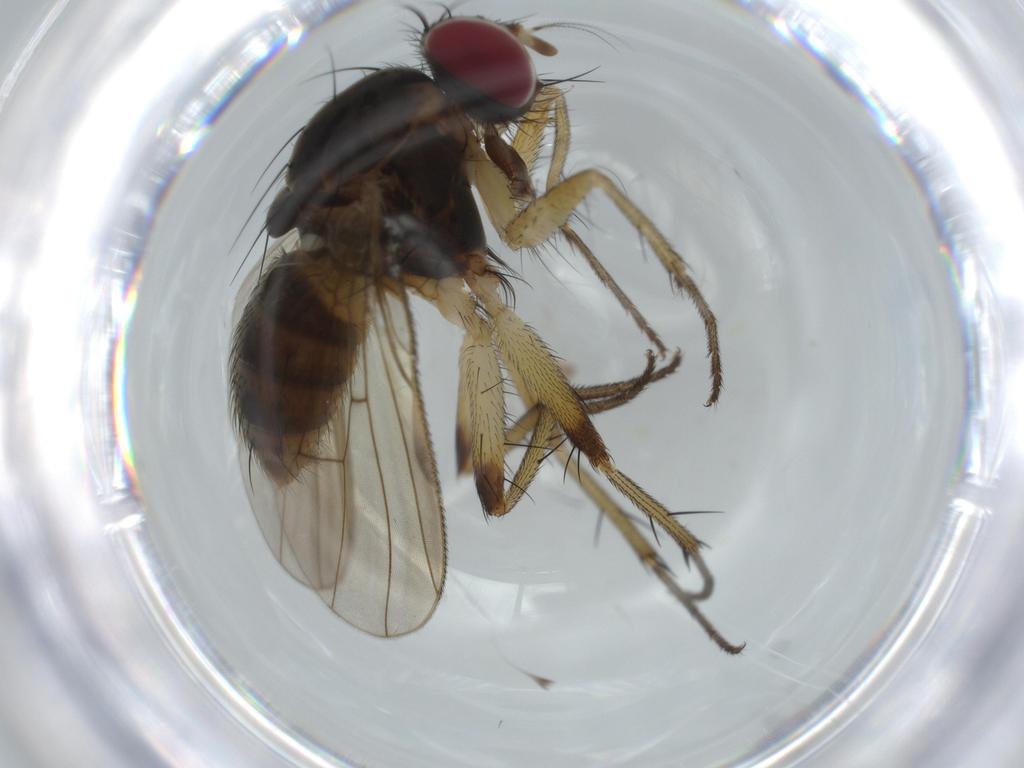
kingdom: Animalia
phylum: Arthropoda
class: Insecta
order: Diptera
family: Muscidae
